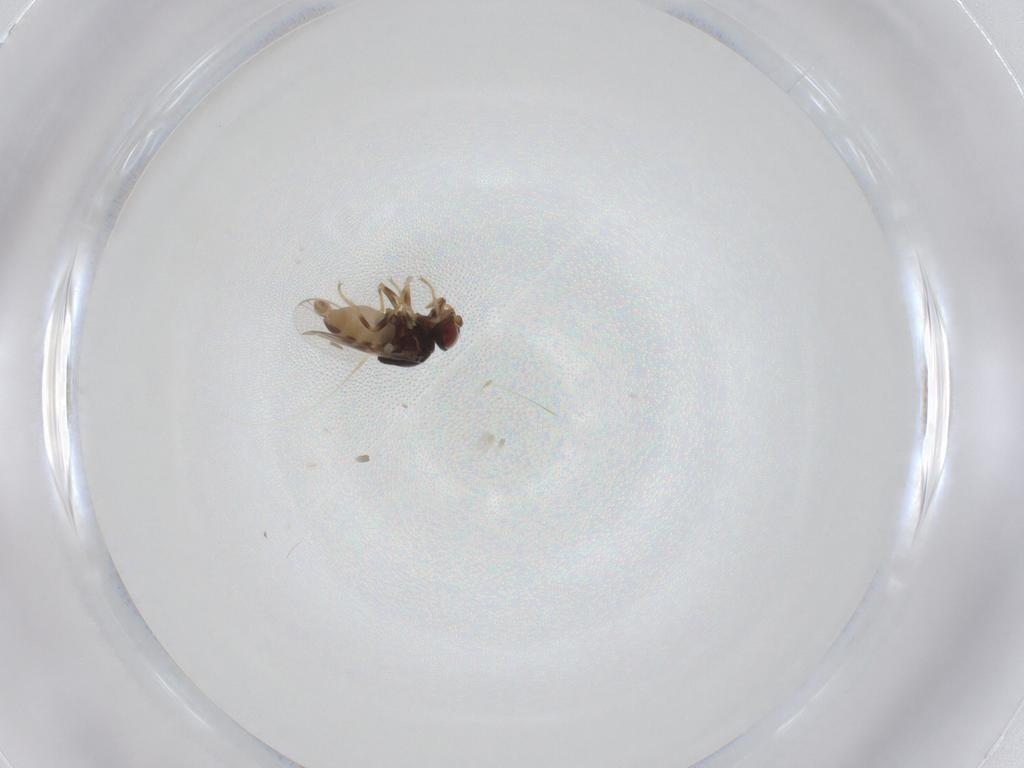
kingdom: Animalia
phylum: Arthropoda
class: Insecta
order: Diptera
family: Chloropidae
